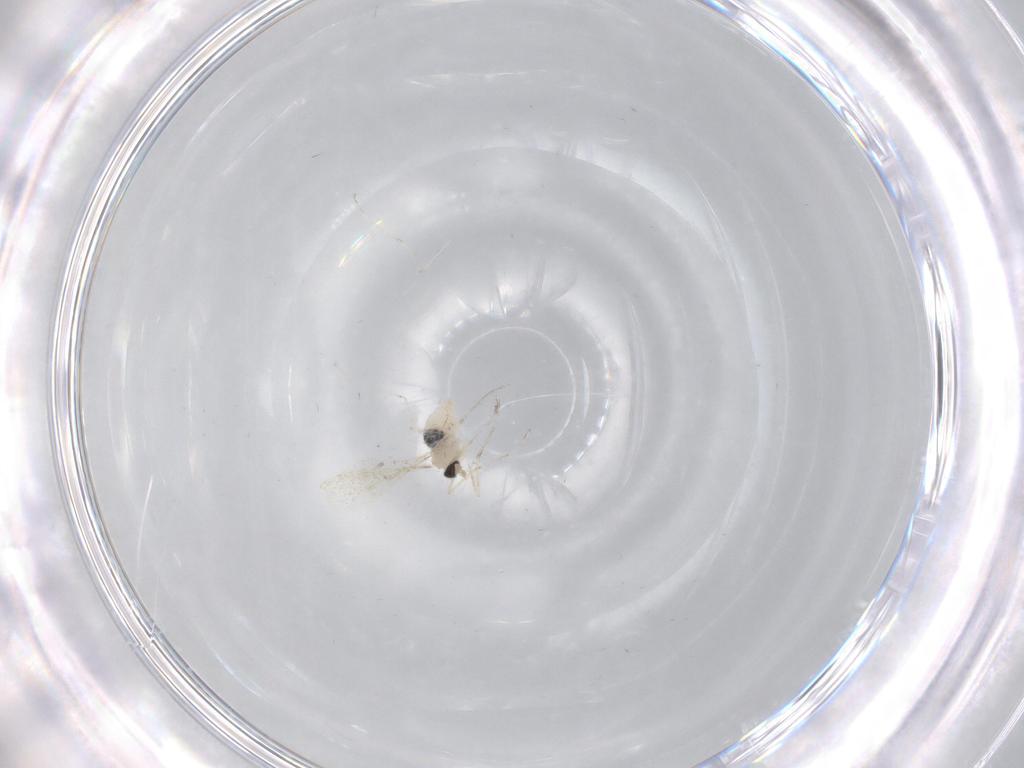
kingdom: Animalia
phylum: Arthropoda
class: Insecta
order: Diptera
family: Cecidomyiidae
